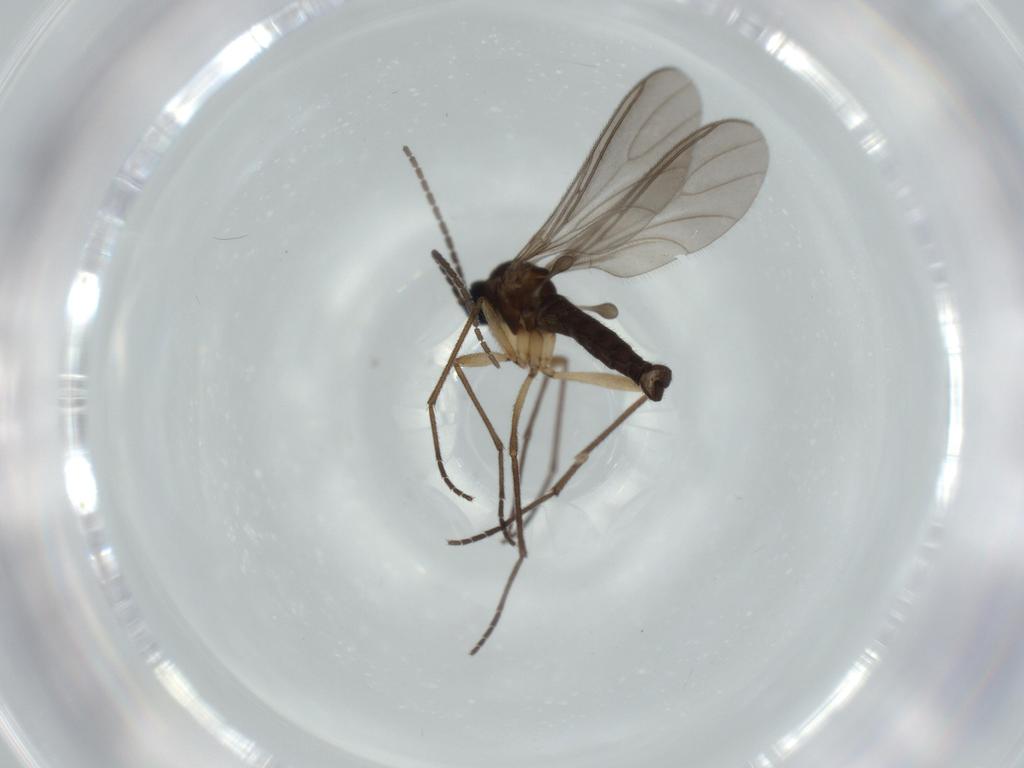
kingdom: Animalia
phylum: Arthropoda
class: Insecta
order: Diptera
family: Sciaridae
